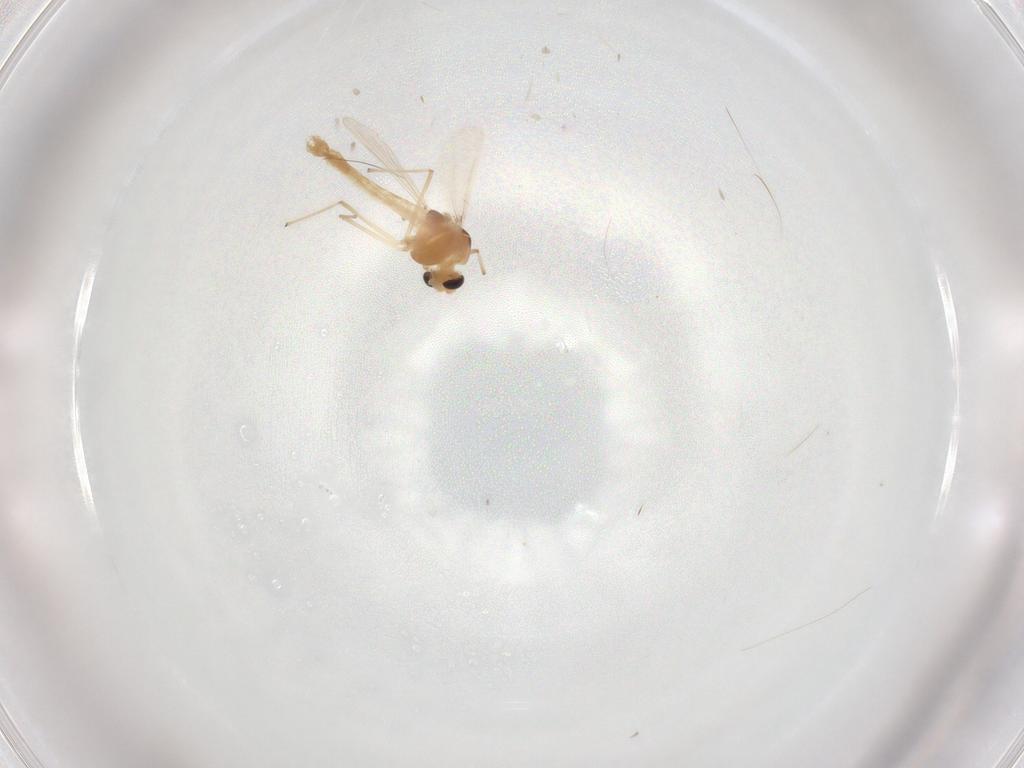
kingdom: Animalia
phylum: Arthropoda
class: Insecta
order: Diptera
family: Chironomidae
